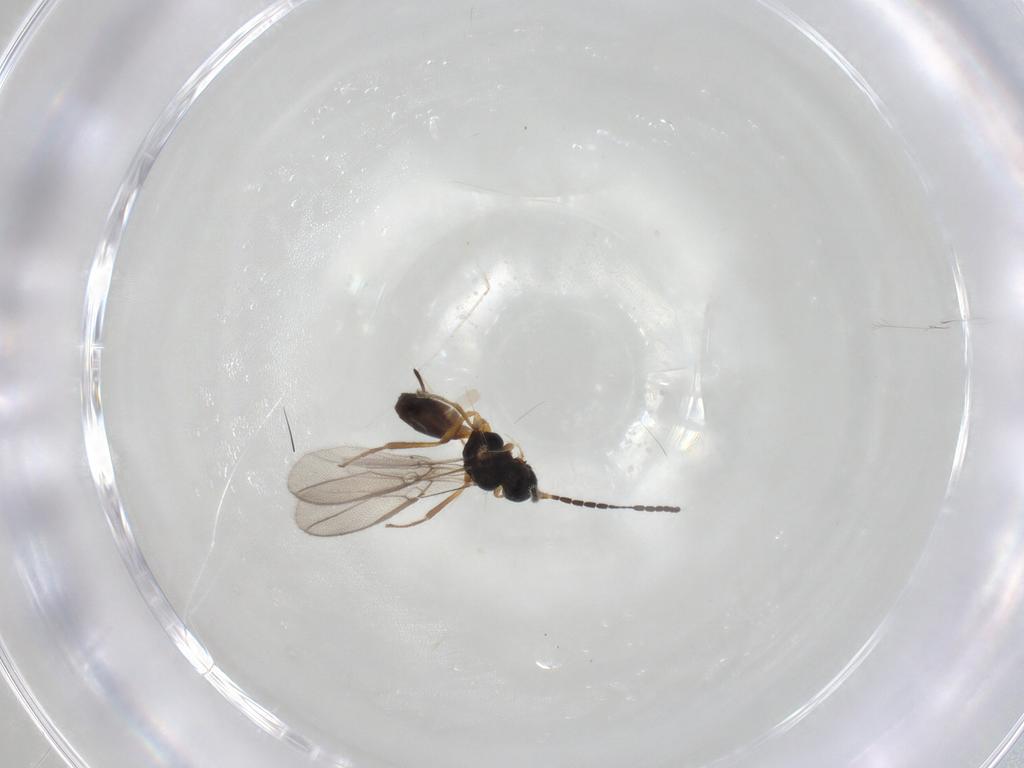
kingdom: Animalia
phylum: Arthropoda
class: Insecta
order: Hymenoptera
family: Braconidae
